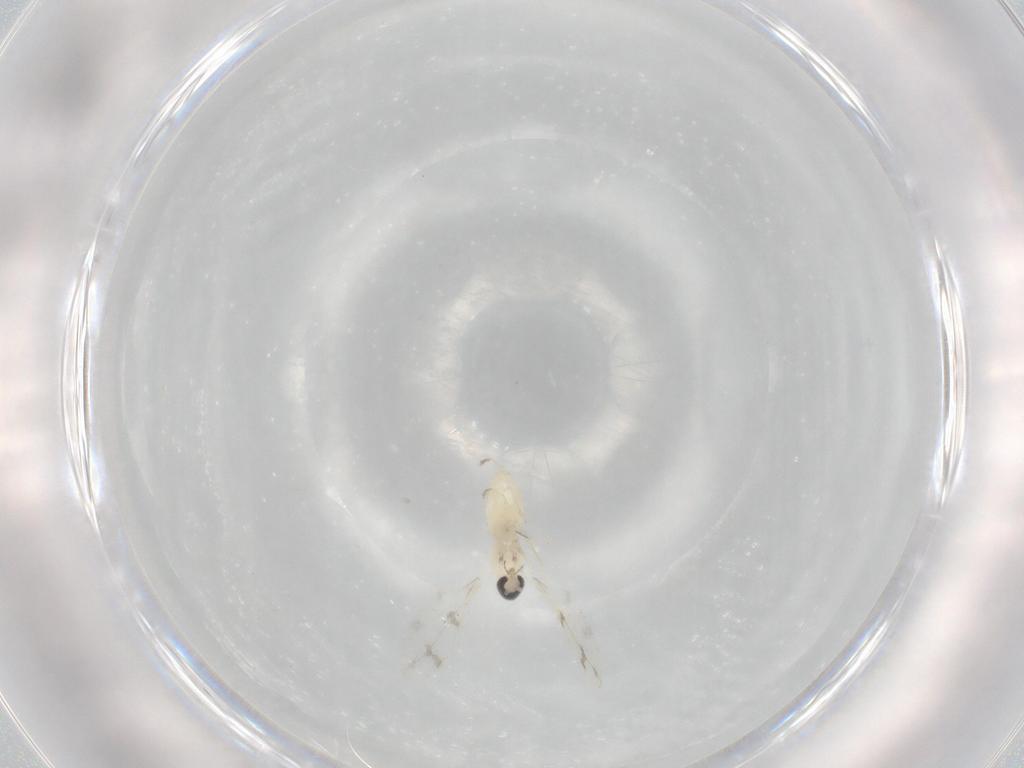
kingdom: Animalia
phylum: Arthropoda
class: Insecta
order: Diptera
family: Cecidomyiidae
